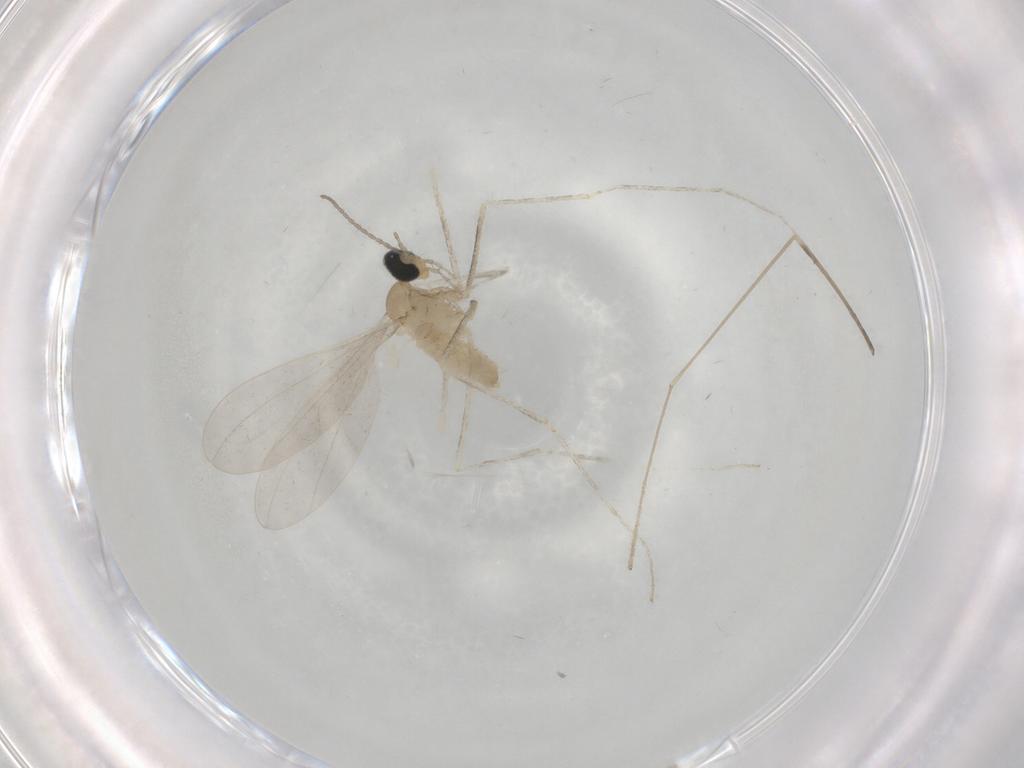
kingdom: Animalia
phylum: Arthropoda
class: Insecta
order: Diptera
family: Cecidomyiidae
